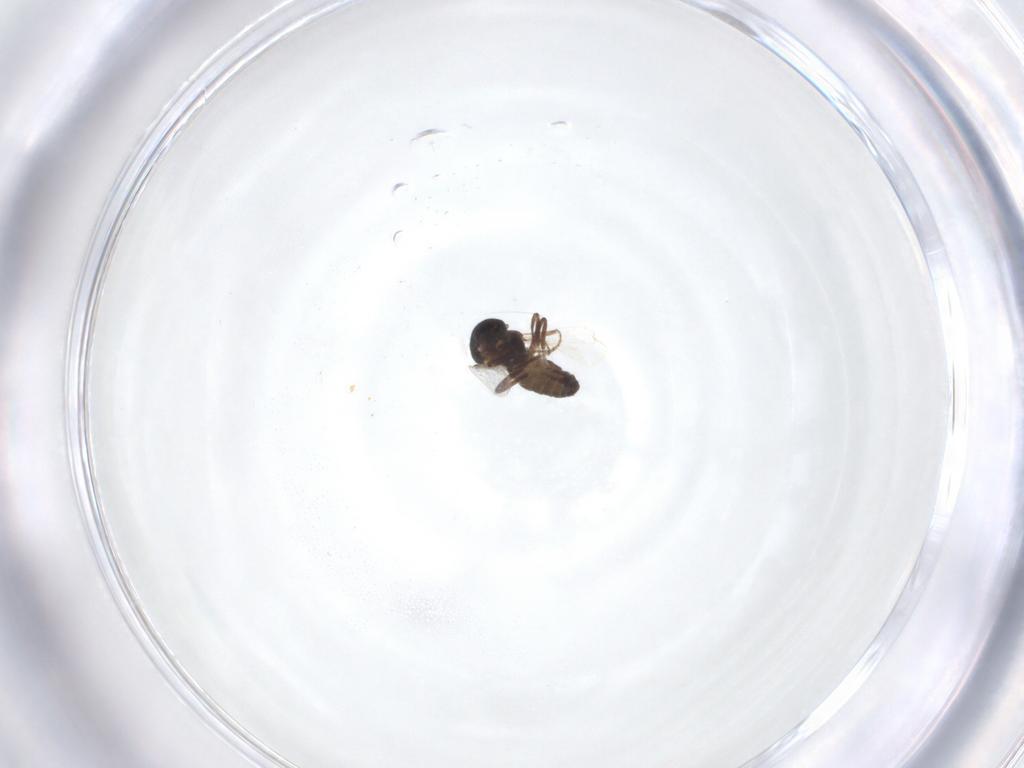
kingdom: Animalia
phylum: Arthropoda
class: Insecta
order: Diptera
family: Ceratopogonidae
